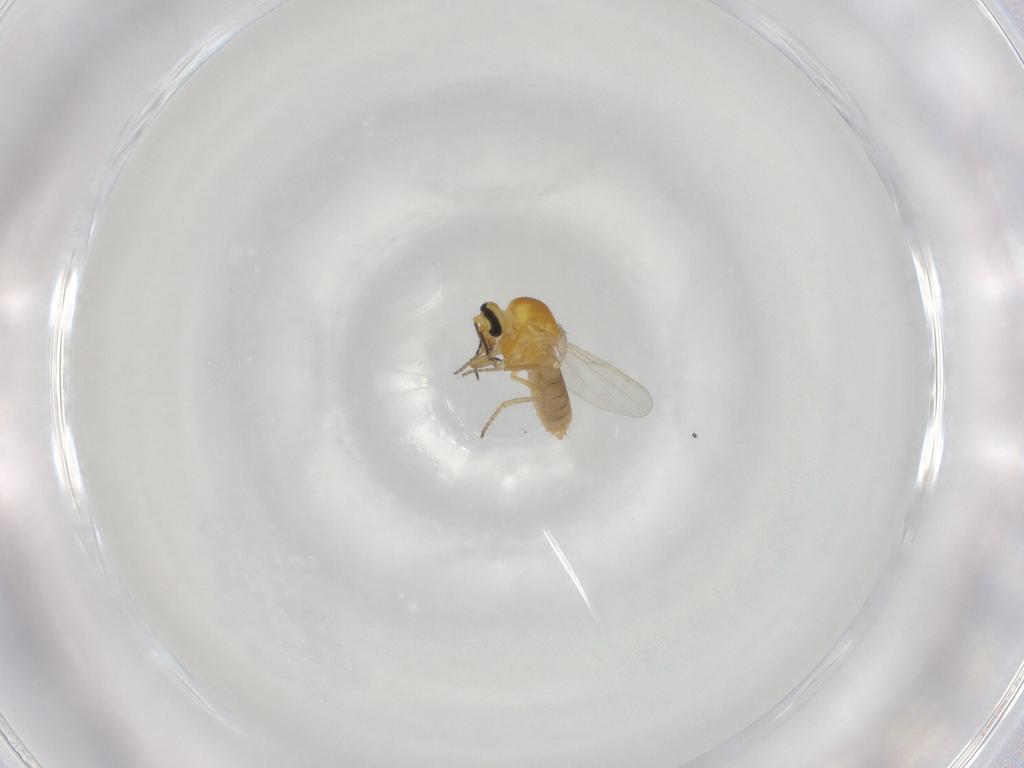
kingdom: Animalia
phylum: Arthropoda
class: Insecta
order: Diptera
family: Ceratopogonidae
